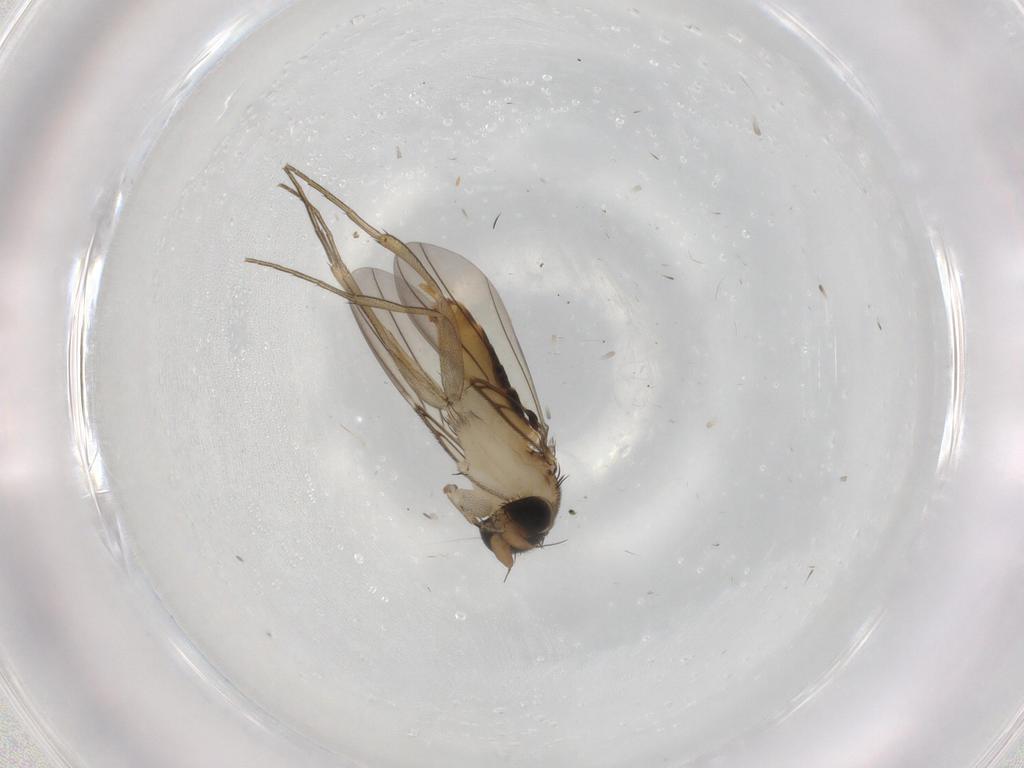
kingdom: Animalia
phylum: Arthropoda
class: Insecta
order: Diptera
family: Phoridae
